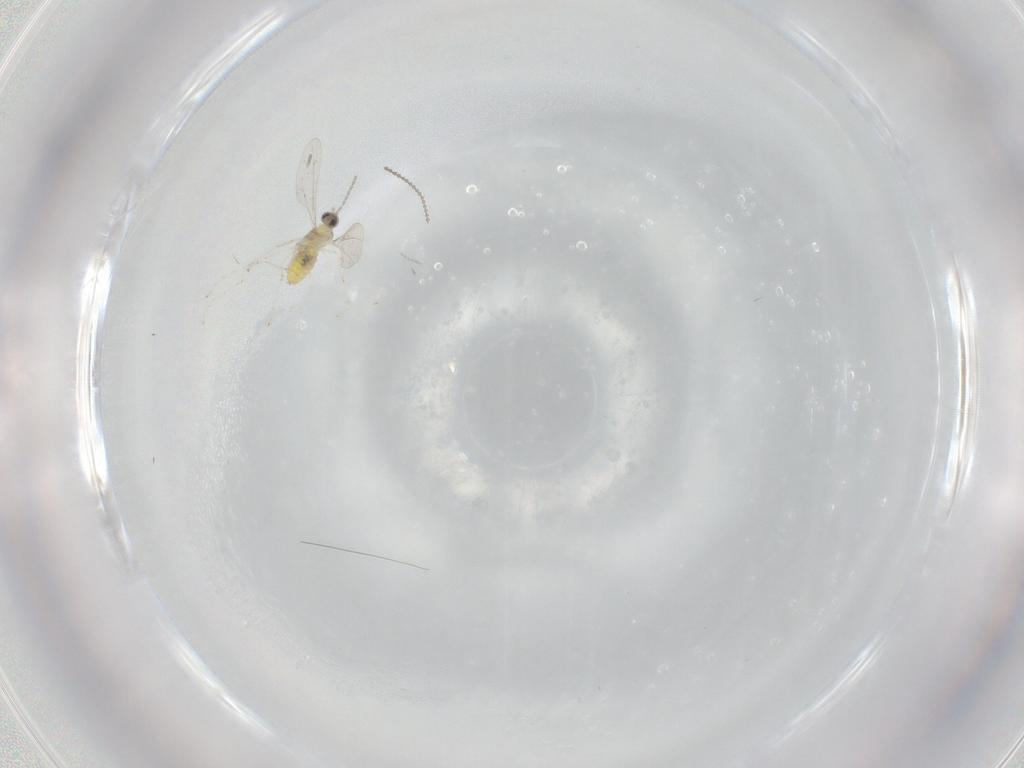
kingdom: Animalia
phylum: Arthropoda
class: Insecta
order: Diptera
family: Cecidomyiidae
